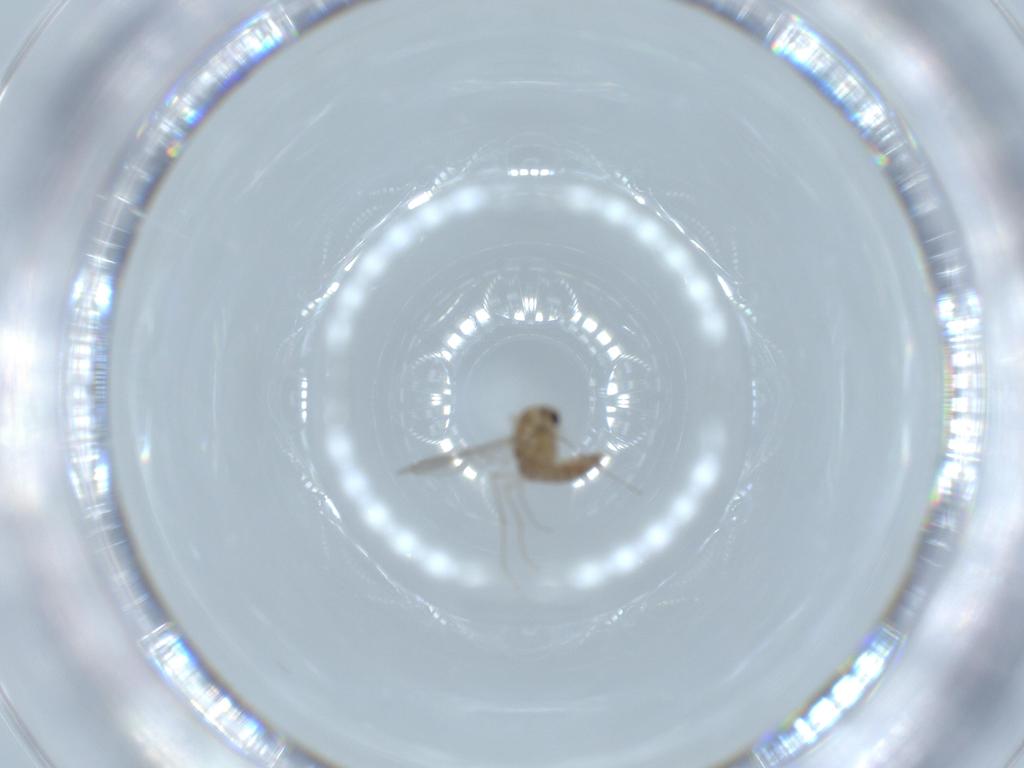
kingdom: Animalia
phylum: Arthropoda
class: Insecta
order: Diptera
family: Chironomidae
